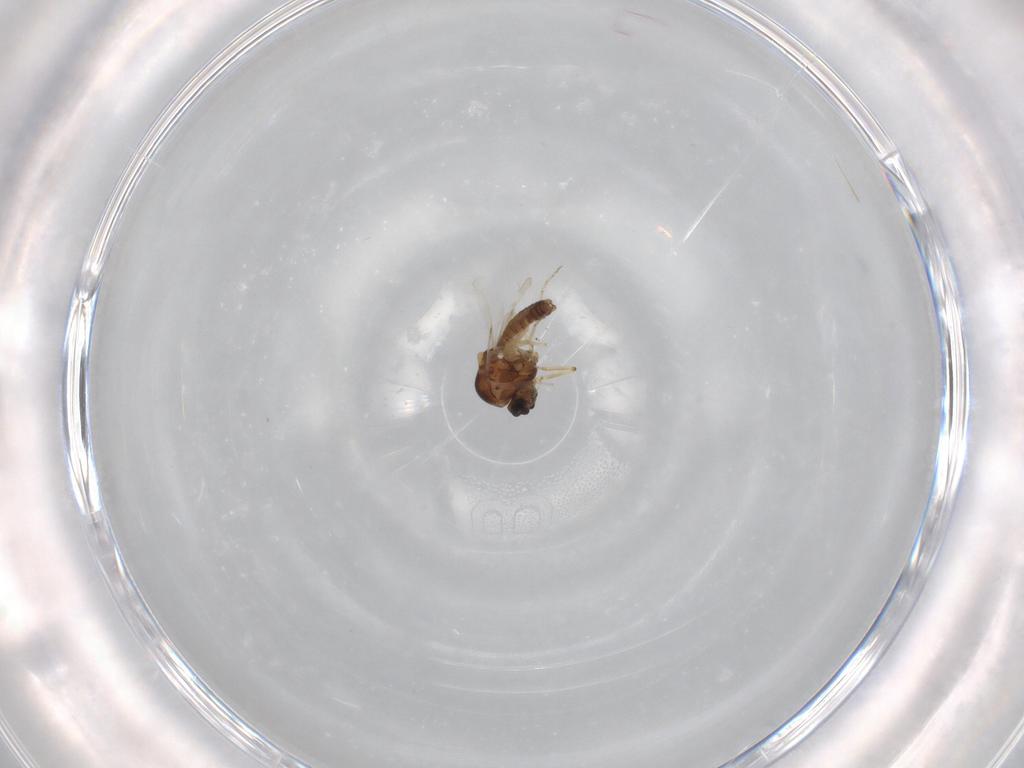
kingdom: Animalia
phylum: Arthropoda
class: Insecta
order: Diptera
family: Ceratopogonidae
